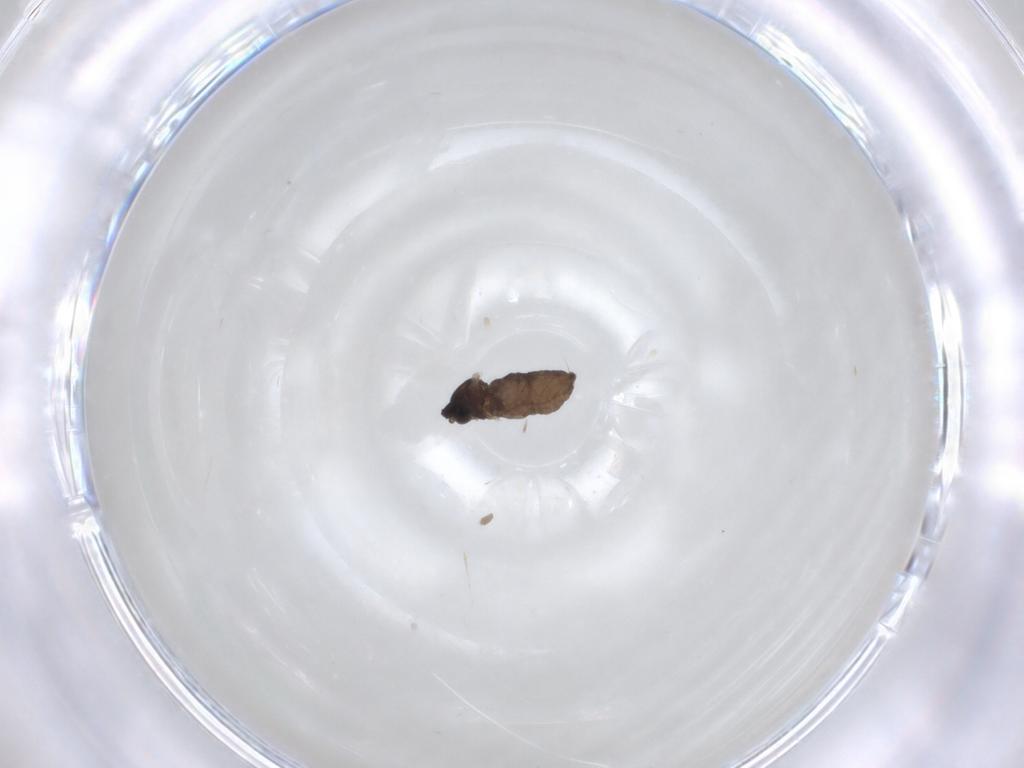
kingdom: Animalia
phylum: Arthropoda
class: Insecta
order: Diptera
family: Cecidomyiidae
